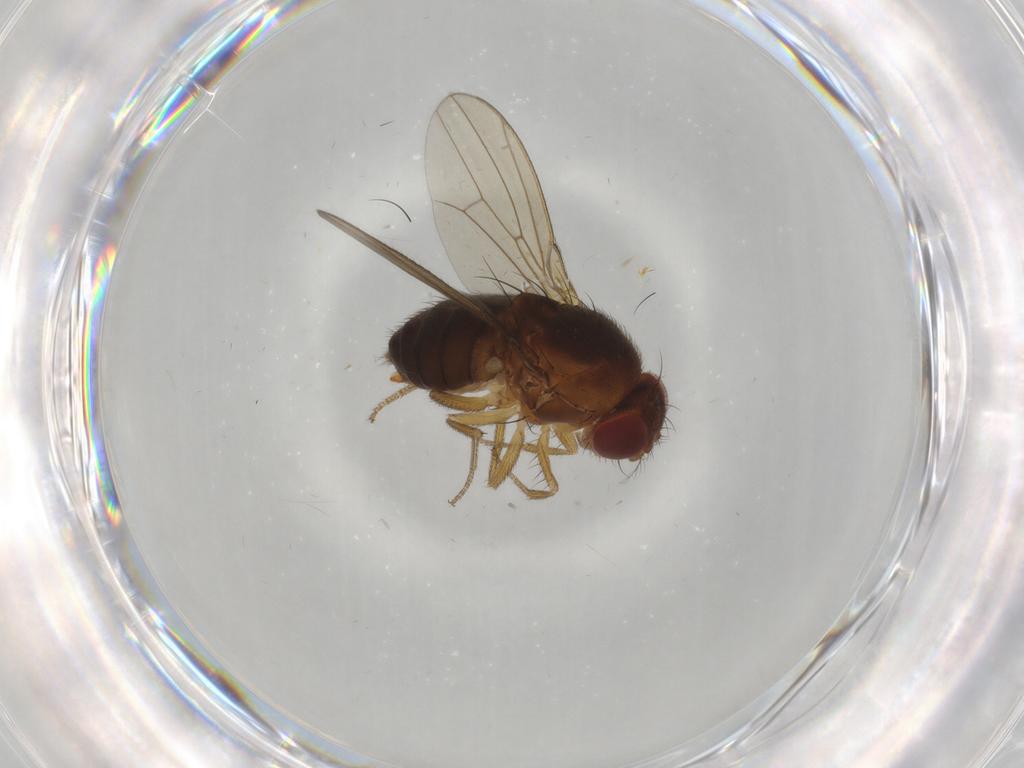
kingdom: Animalia
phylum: Arthropoda
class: Insecta
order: Diptera
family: Drosophilidae
